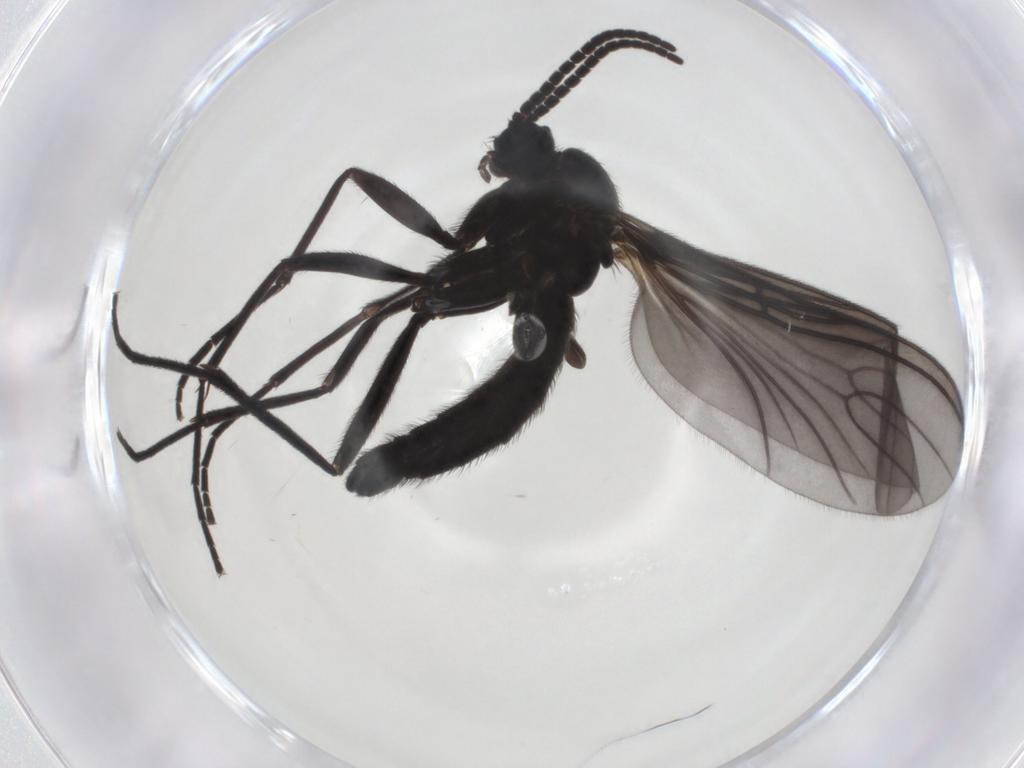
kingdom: Animalia
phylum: Arthropoda
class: Insecta
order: Diptera
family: Sciaridae
